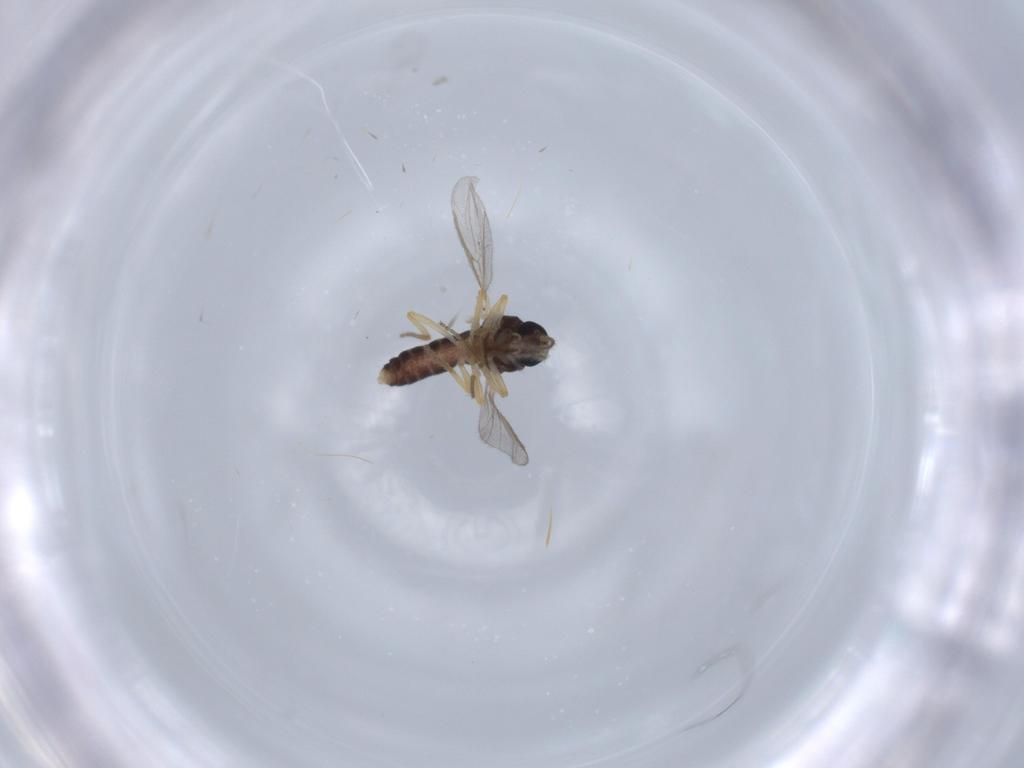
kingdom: Animalia
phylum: Arthropoda
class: Insecta
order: Diptera
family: Ceratopogonidae
